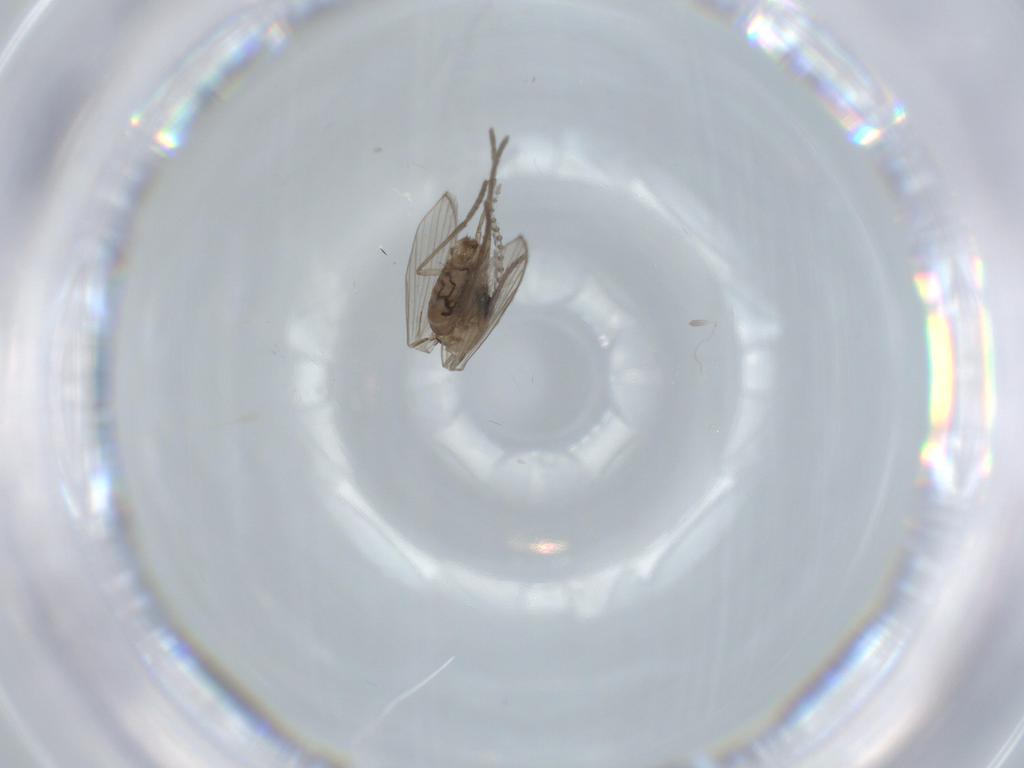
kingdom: Animalia
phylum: Arthropoda
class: Insecta
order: Diptera
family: Psychodidae
